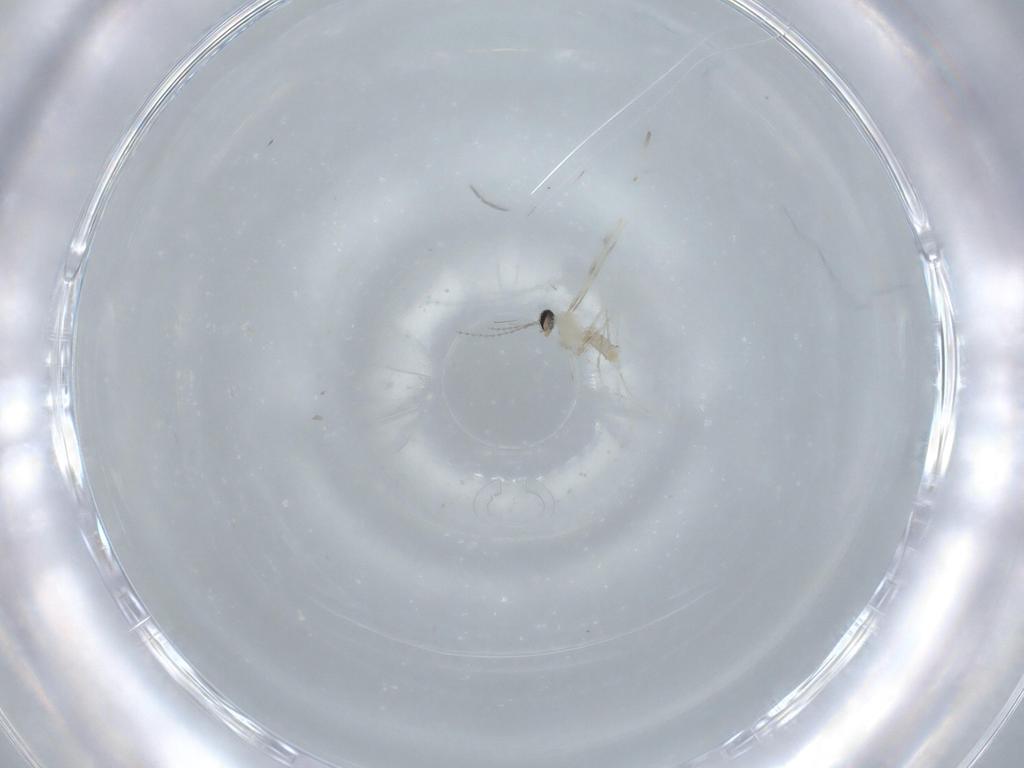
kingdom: Animalia
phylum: Arthropoda
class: Insecta
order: Diptera
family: Cecidomyiidae
